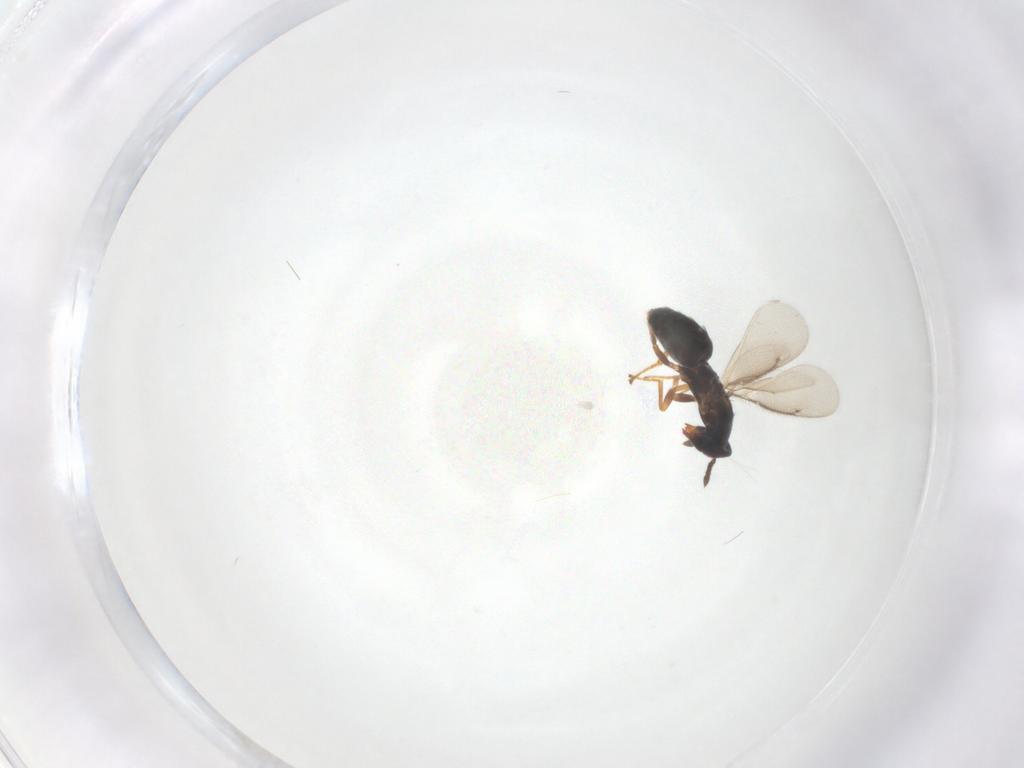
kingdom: Animalia
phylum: Arthropoda
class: Insecta
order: Hymenoptera
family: Eulophidae
